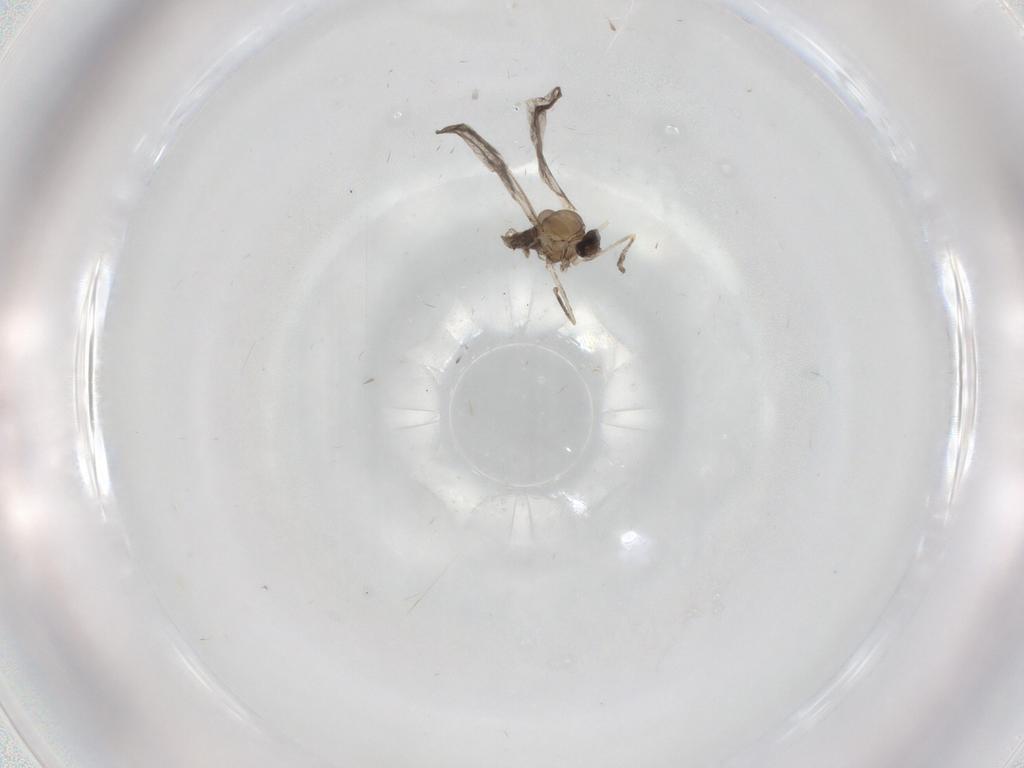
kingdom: Animalia
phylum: Arthropoda
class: Insecta
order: Diptera
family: Cecidomyiidae
